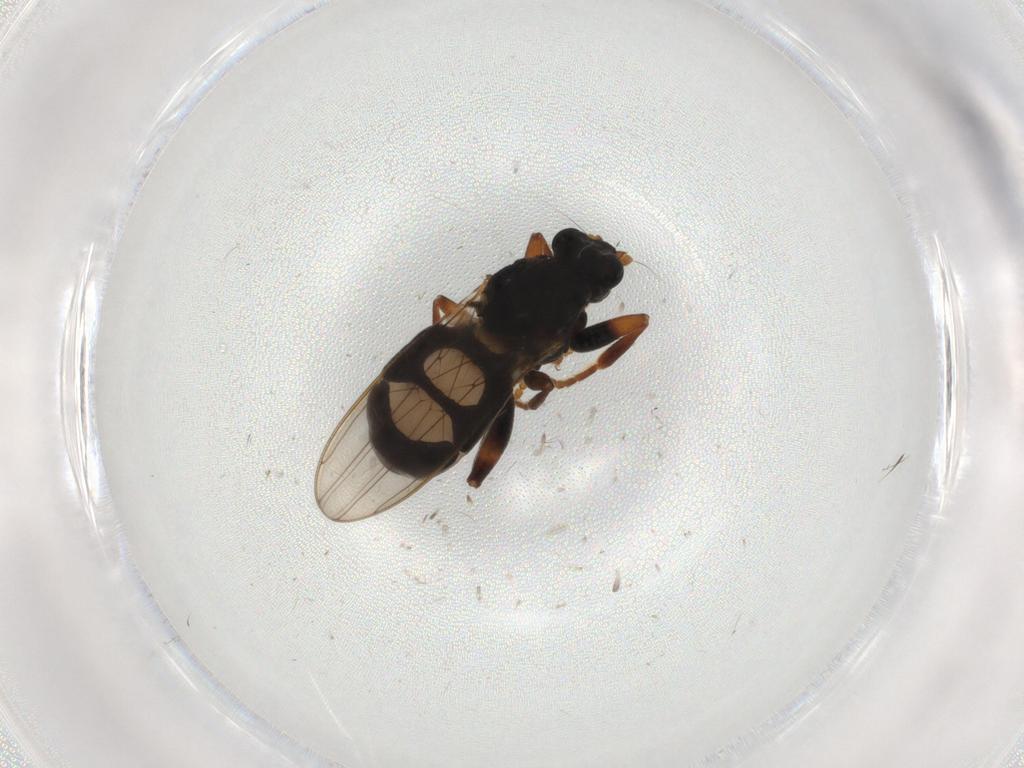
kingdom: Animalia
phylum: Arthropoda
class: Insecta
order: Diptera
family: Sphaeroceridae
